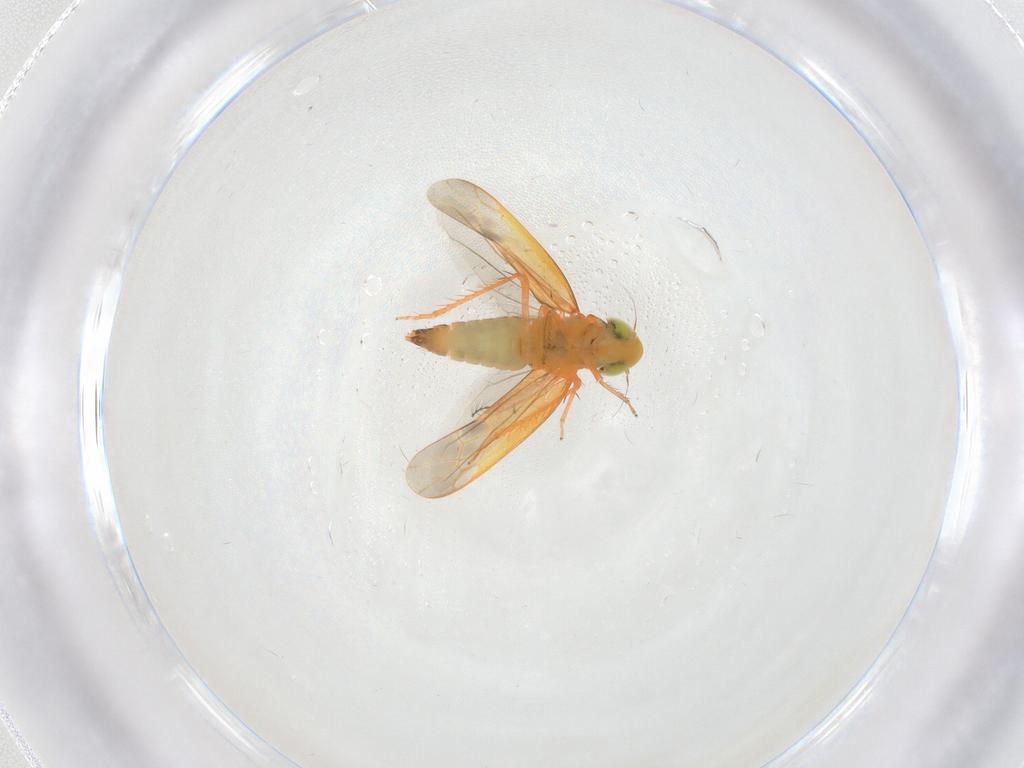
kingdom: Animalia
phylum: Arthropoda
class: Insecta
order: Hemiptera
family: Cicadellidae
